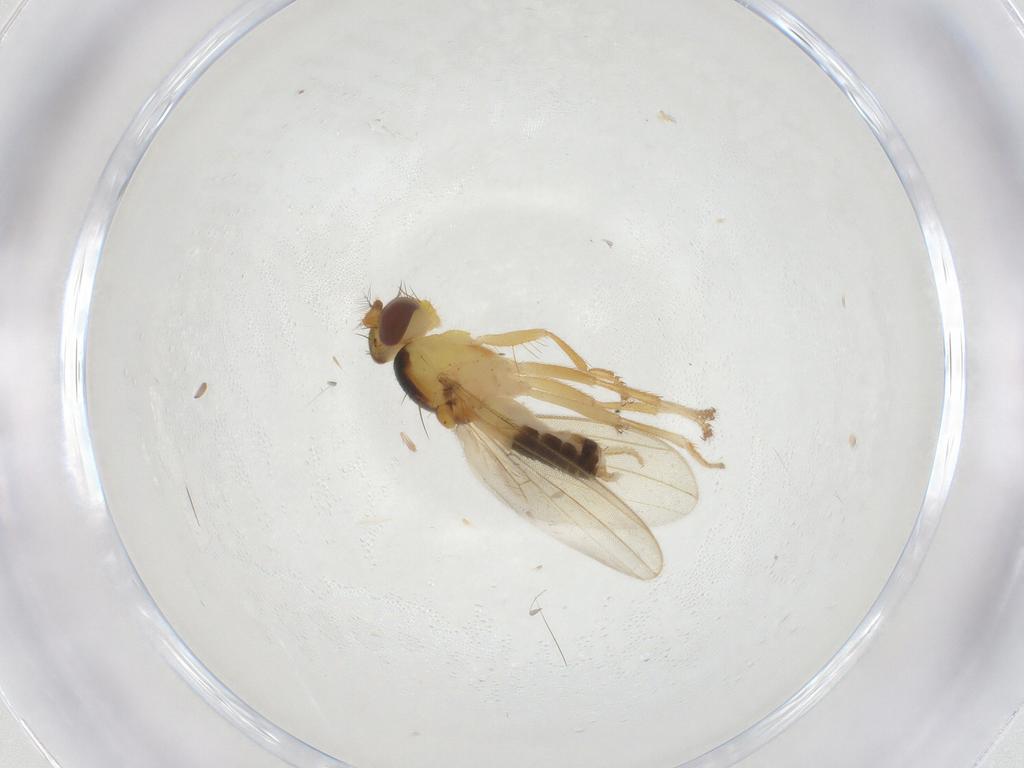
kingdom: Animalia
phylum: Arthropoda
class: Insecta
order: Diptera
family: Periscelididae
